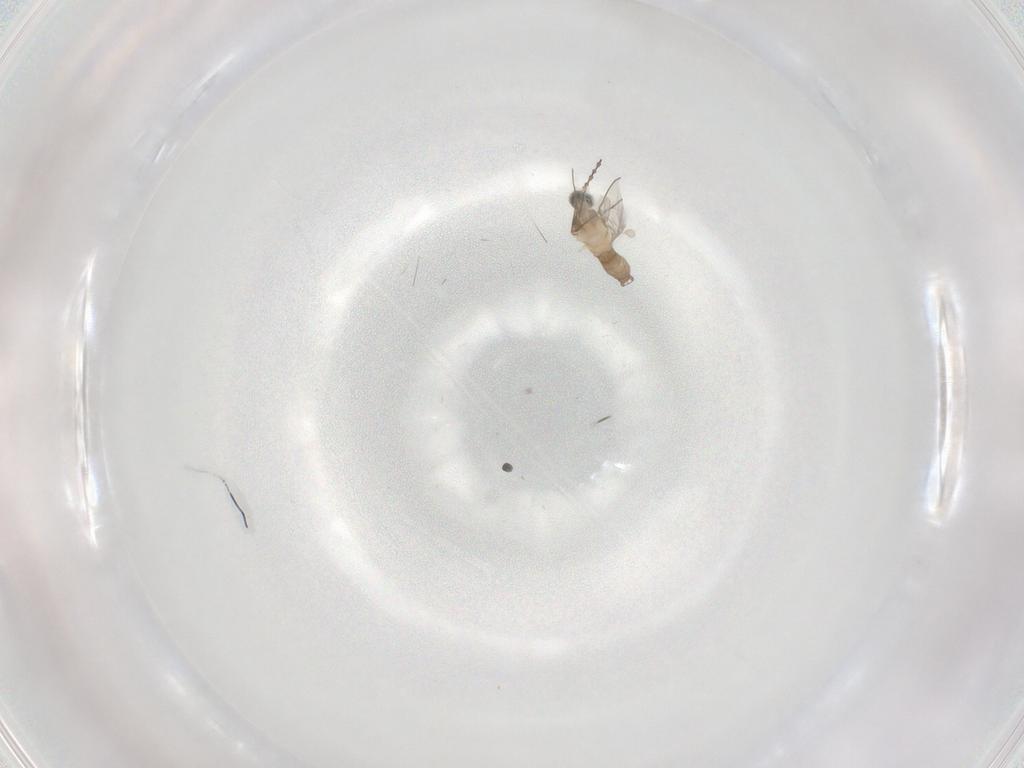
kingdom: Animalia
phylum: Arthropoda
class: Insecta
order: Diptera
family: Cecidomyiidae
